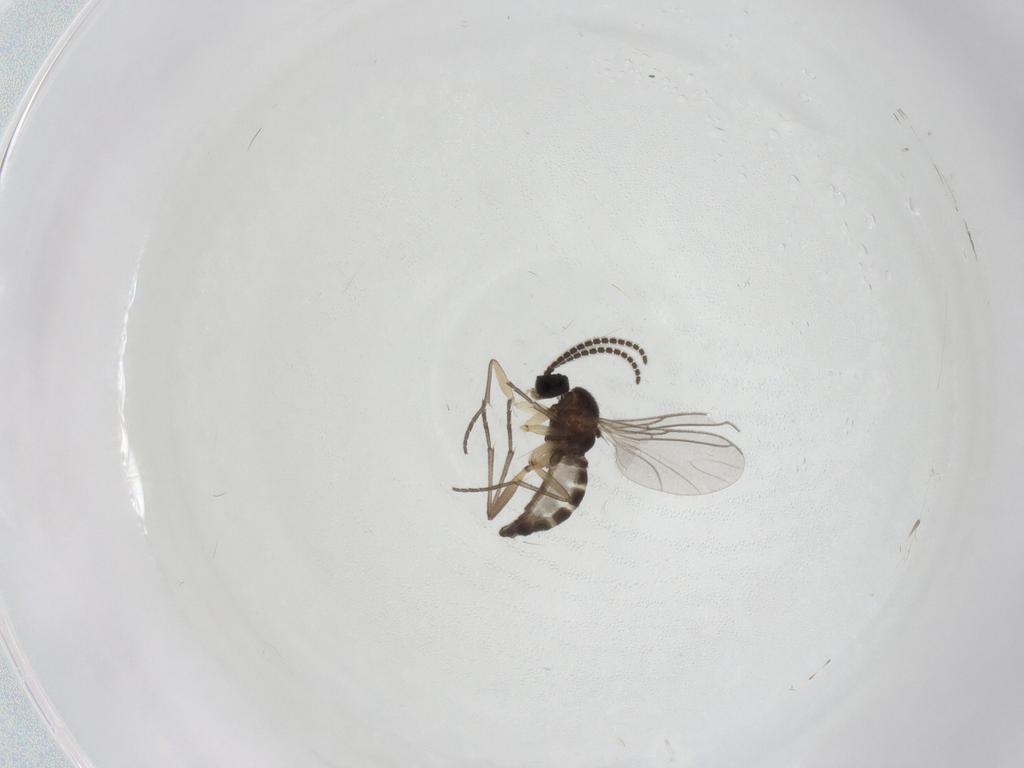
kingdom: Animalia
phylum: Arthropoda
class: Insecta
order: Diptera
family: Sciaridae
